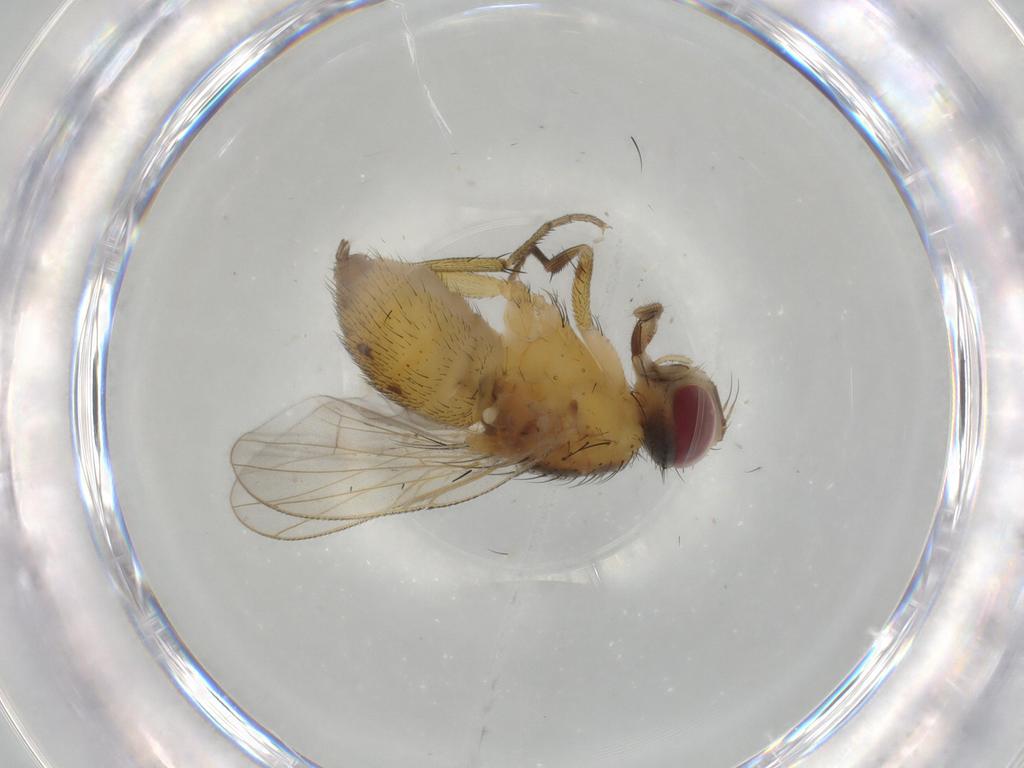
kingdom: Animalia
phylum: Arthropoda
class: Insecta
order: Diptera
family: Muscidae
